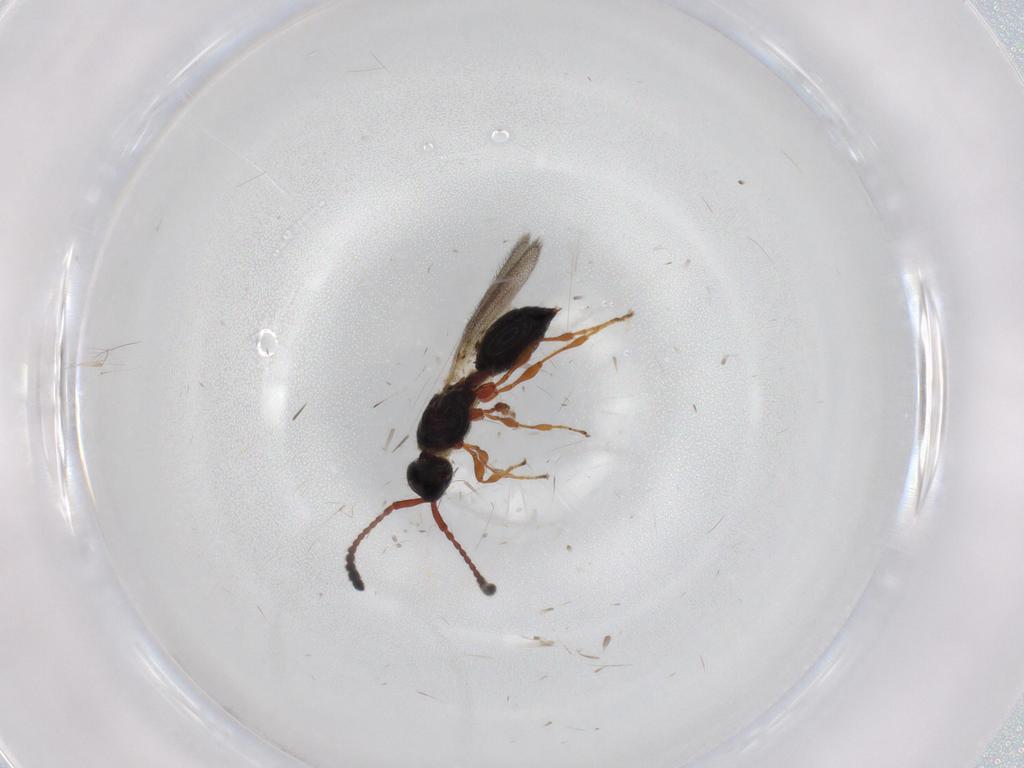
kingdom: Animalia
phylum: Arthropoda
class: Insecta
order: Hymenoptera
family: Diapriidae
